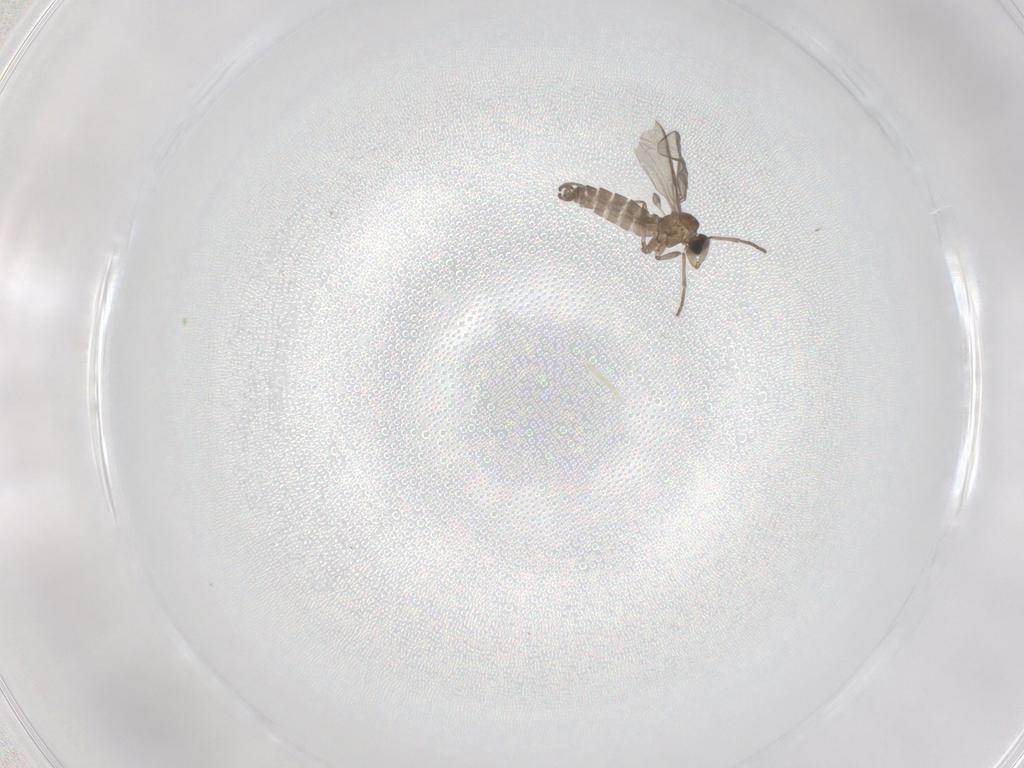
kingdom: Animalia
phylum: Arthropoda
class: Insecta
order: Diptera
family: Sciaridae
